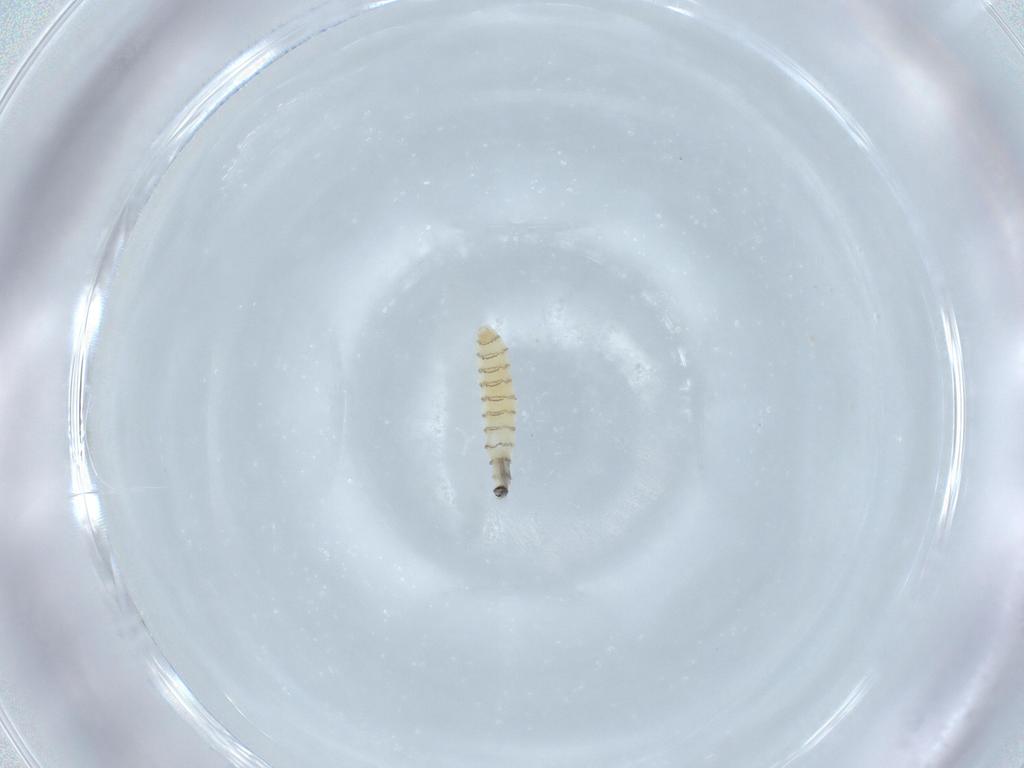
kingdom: Animalia
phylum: Arthropoda
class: Insecta
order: Diptera
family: Sarcophagidae
